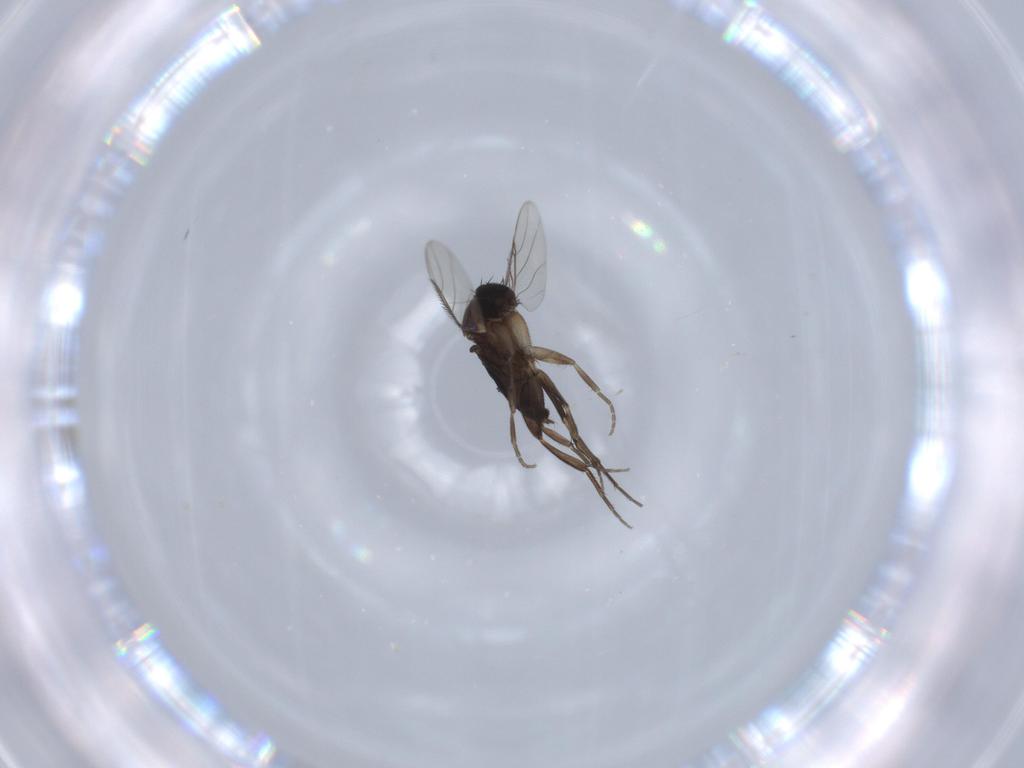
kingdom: Animalia
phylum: Arthropoda
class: Insecta
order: Diptera
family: Phoridae
